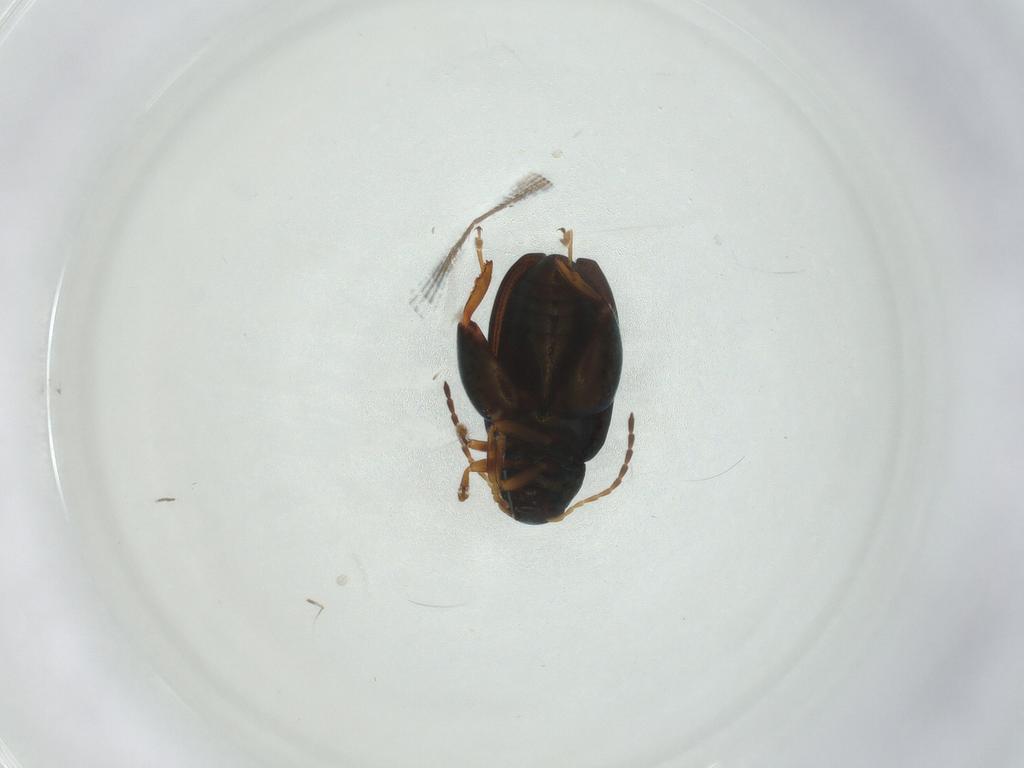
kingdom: Animalia
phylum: Arthropoda
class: Insecta
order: Coleoptera
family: Chrysomelidae
